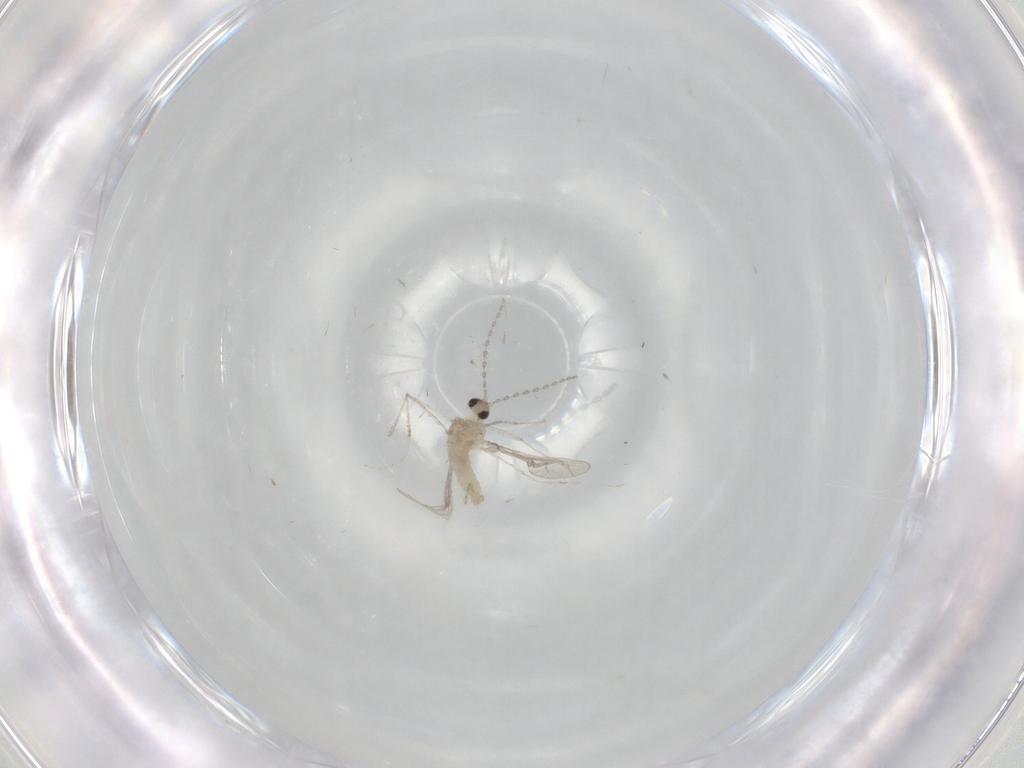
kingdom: Animalia
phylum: Arthropoda
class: Insecta
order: Diptera
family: Cecidomyiidae
